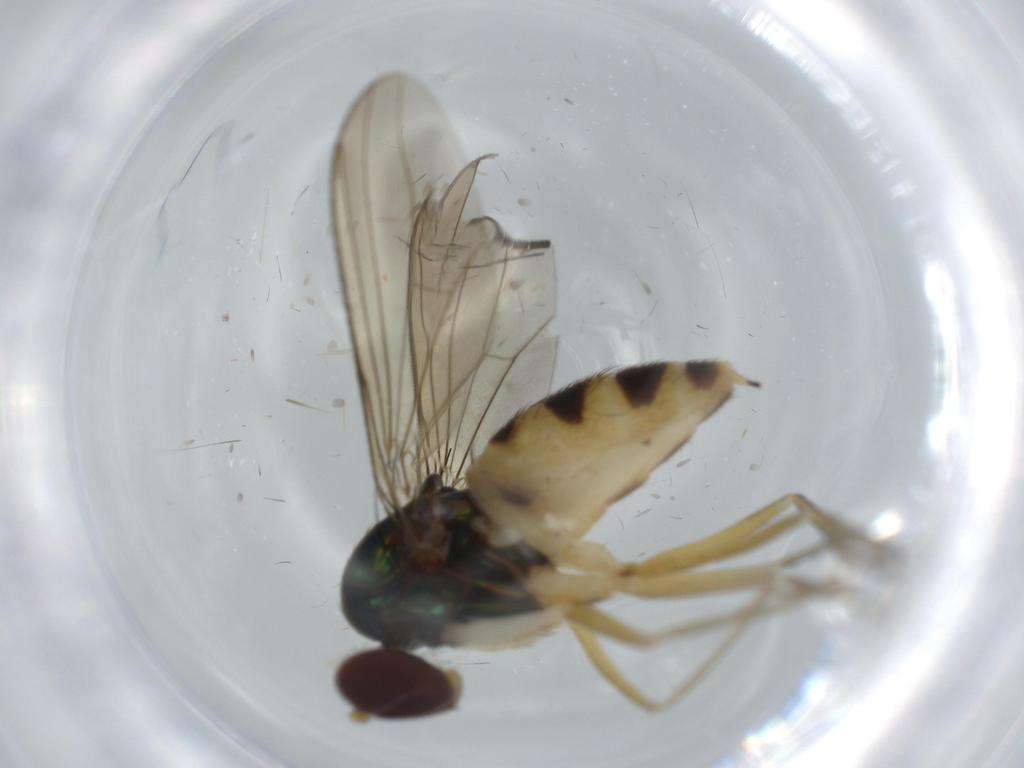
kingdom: Animalia
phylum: Arthropoda
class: Insecta
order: Diptera
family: Dolichopodidae
